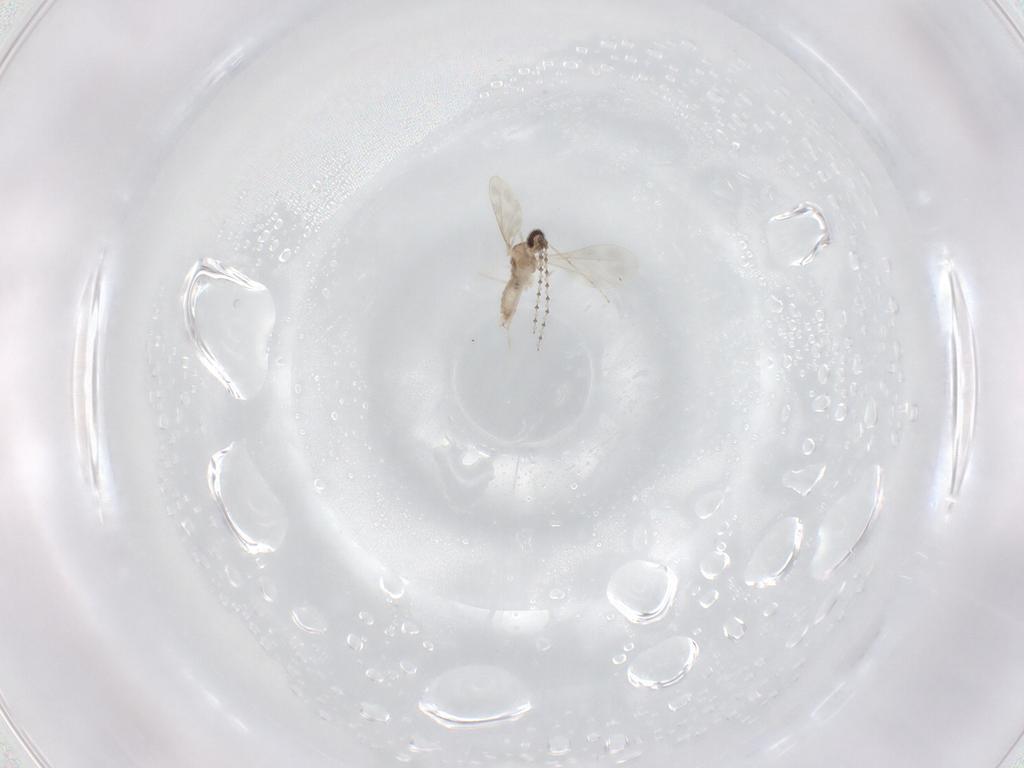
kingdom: Animalia
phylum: Arthropoda
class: Insecta
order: Diptera
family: Cecidomyiidae
